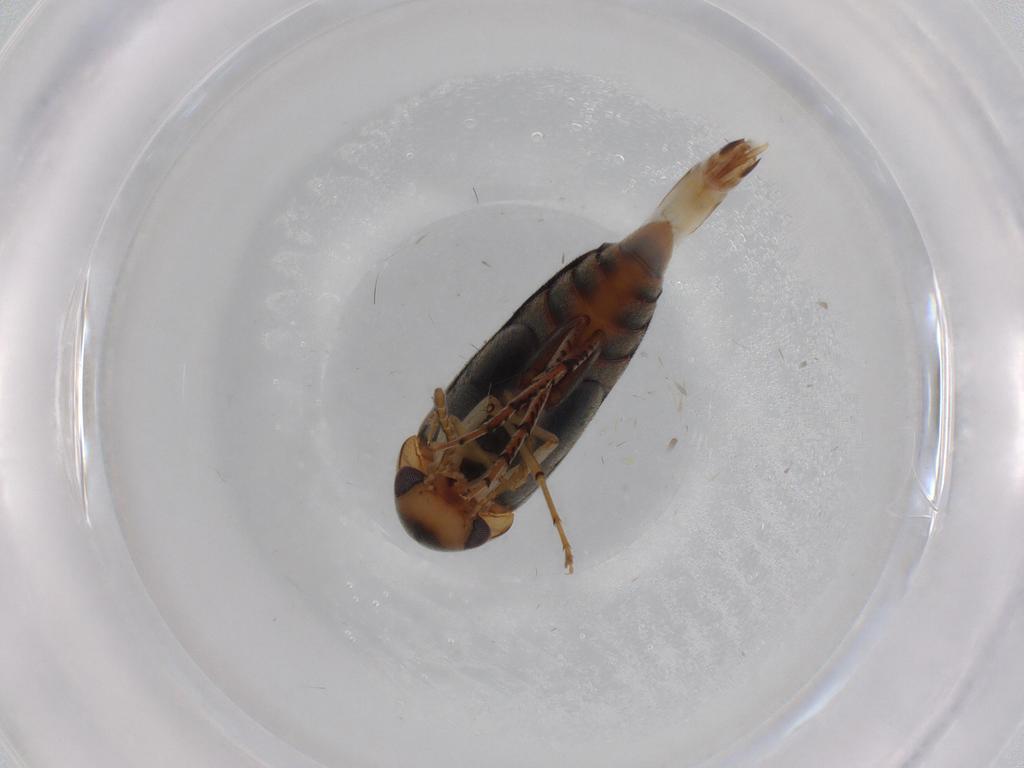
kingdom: Animalia
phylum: Arthropoda
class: Insecta
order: Coleoptera
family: Mordellidae
